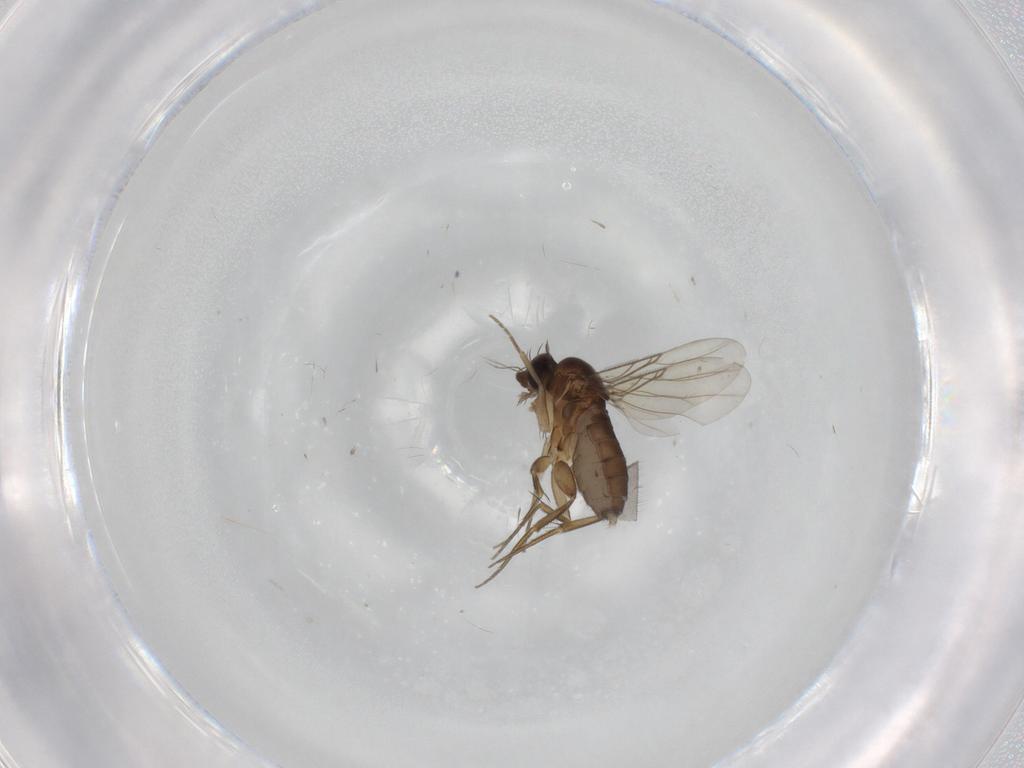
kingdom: Animalia
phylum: Arthropoda
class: Insecta
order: Diptera
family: Phoridae
